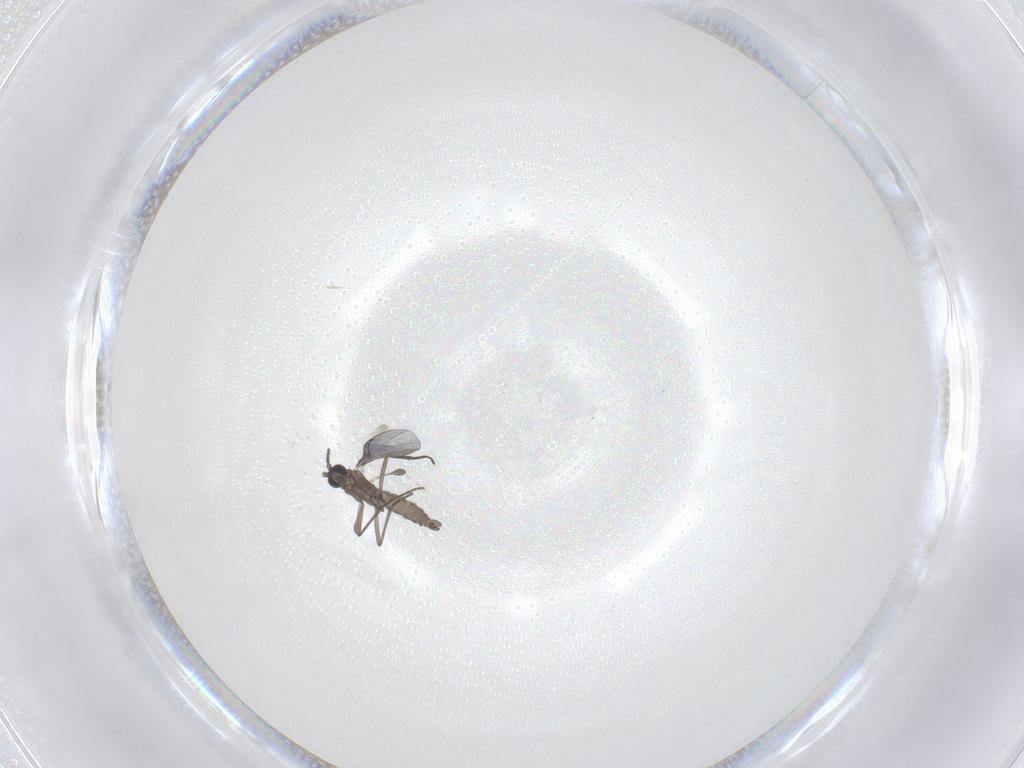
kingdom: Animalia
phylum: Arthropoda
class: Insecta
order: Diptera
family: Sciaridae
